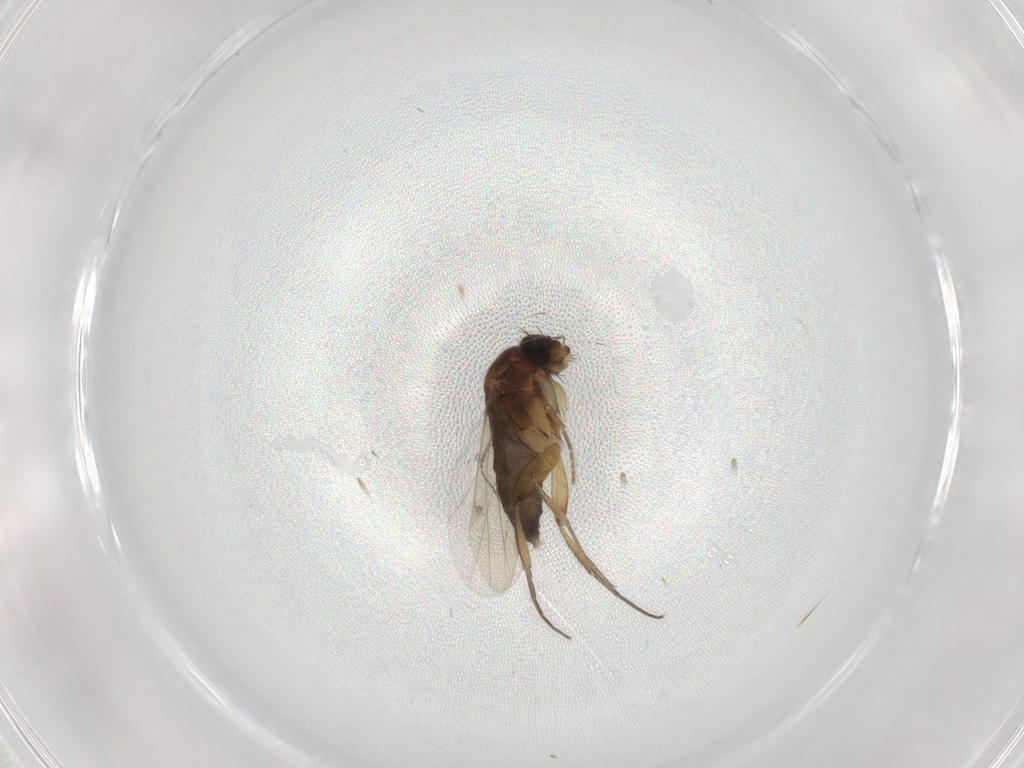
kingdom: Animalia
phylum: Arthropoda
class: Insecta
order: Diptera
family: Phoridae
